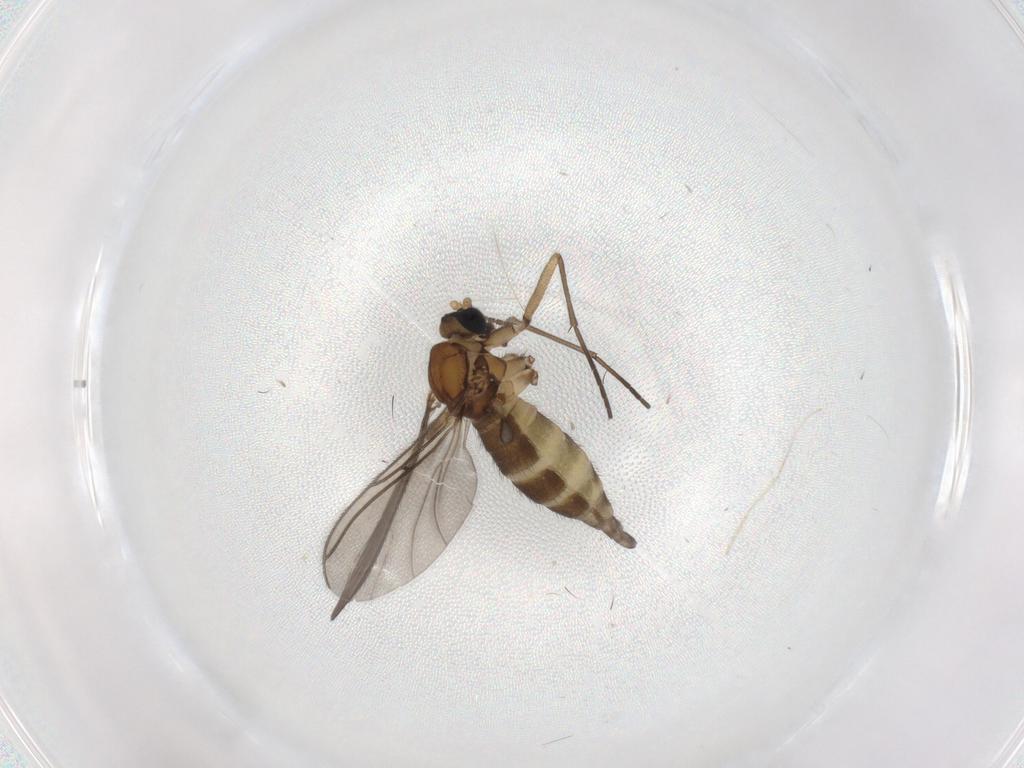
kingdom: Animalia
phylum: Arthropoda
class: Insecta
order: Diptera
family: Sciaridae
